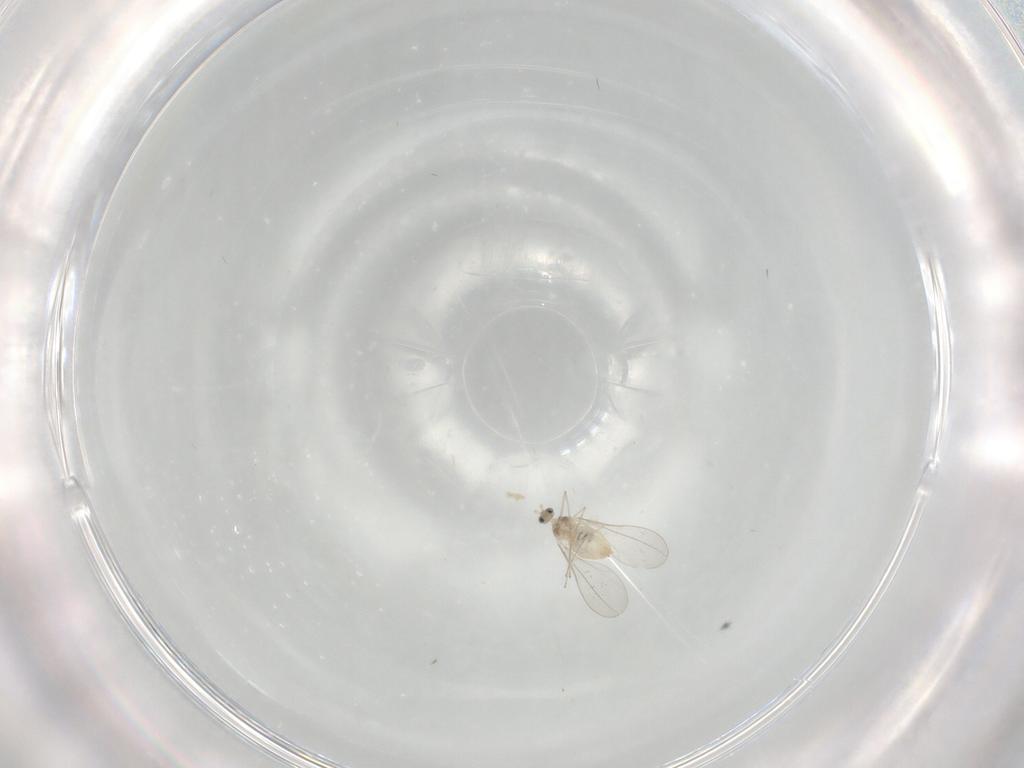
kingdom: Animalia
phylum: Arthropoda
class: Insecta
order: Diptera
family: Cecidomyiidae
